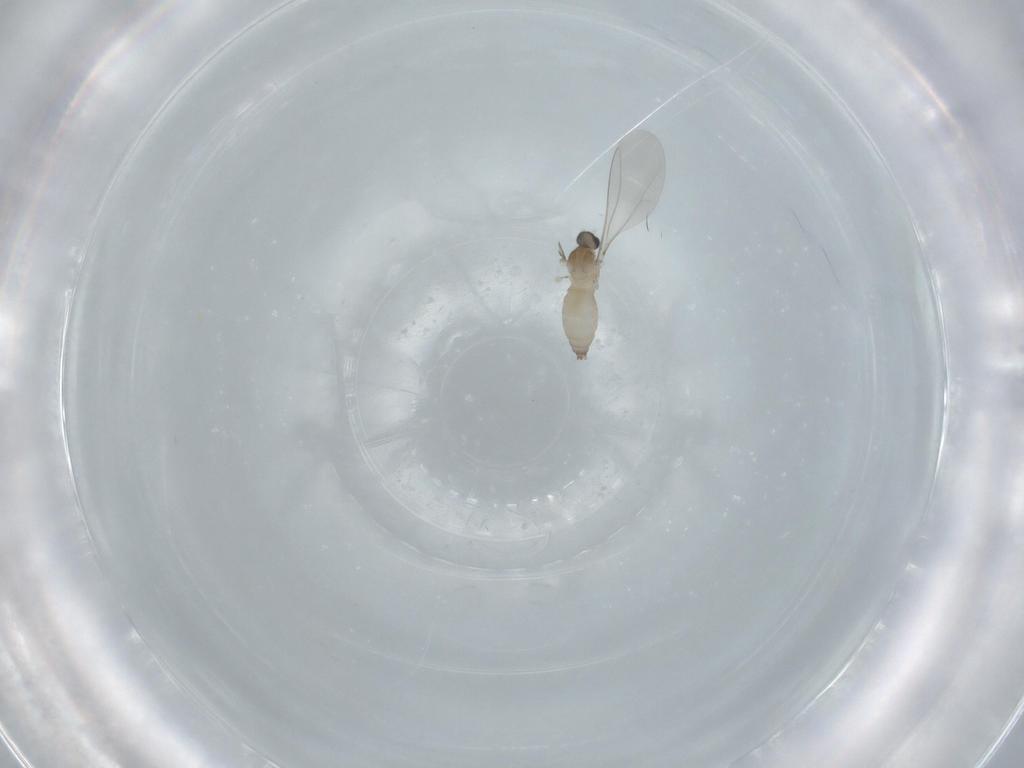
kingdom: Animalia
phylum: Arthropoda
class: Insecta
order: Diptera
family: Cecidomyiidae
